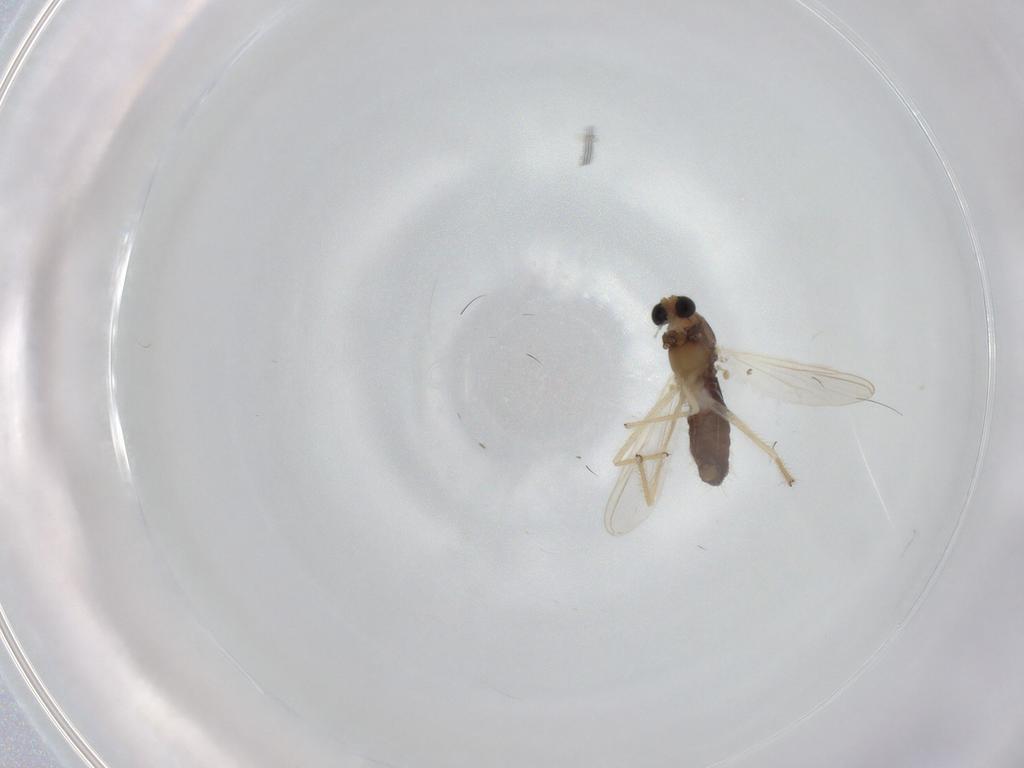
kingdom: Animalia
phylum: Arthropoda
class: Insecta
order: Diptera
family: Chironomidae
